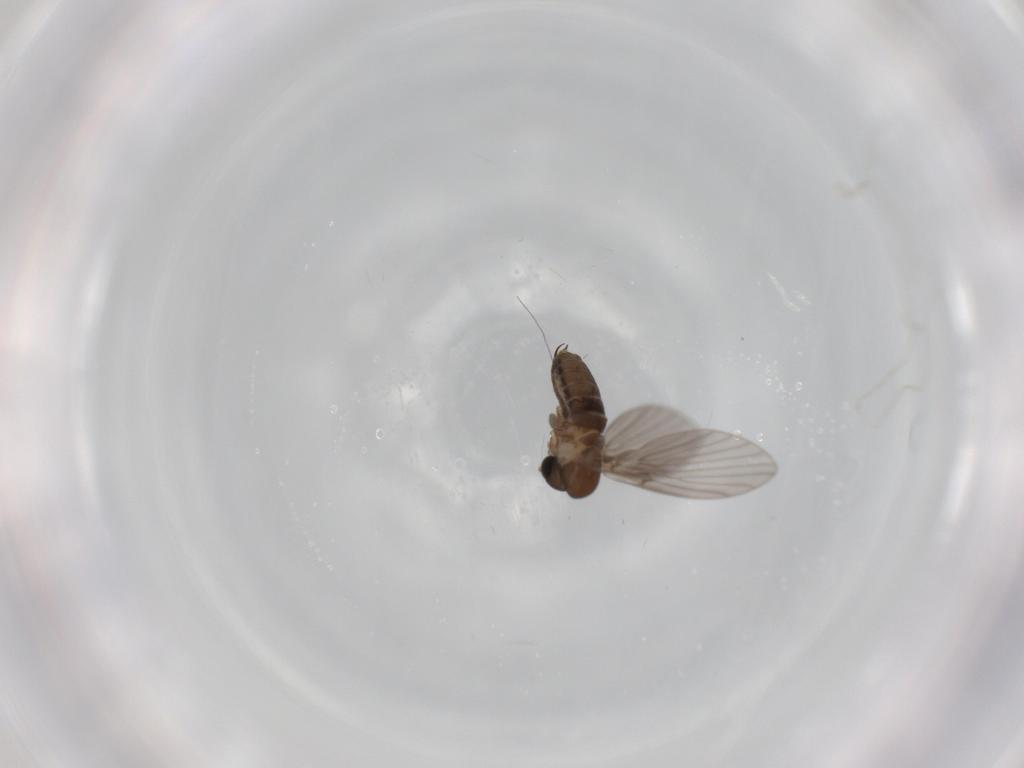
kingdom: Animalia
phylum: Arthropoda
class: Insecta
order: Diptera
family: Psychodidae
